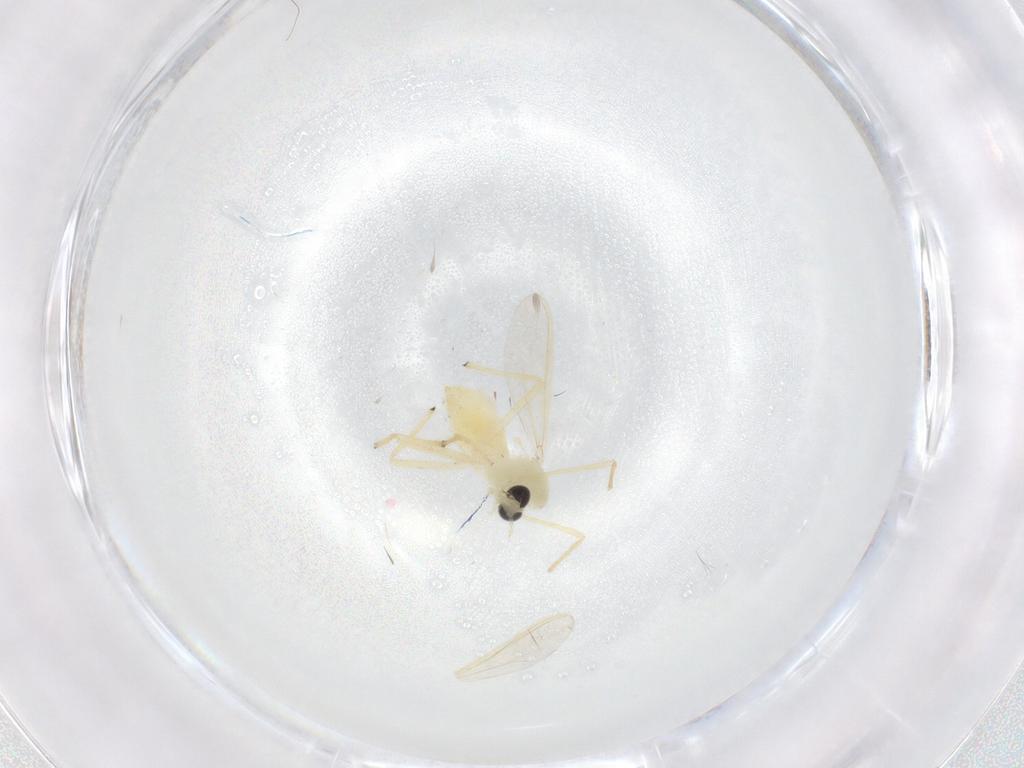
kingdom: Animalia
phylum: Arthropoda
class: Insecta
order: Diptera
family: Chironomidae
